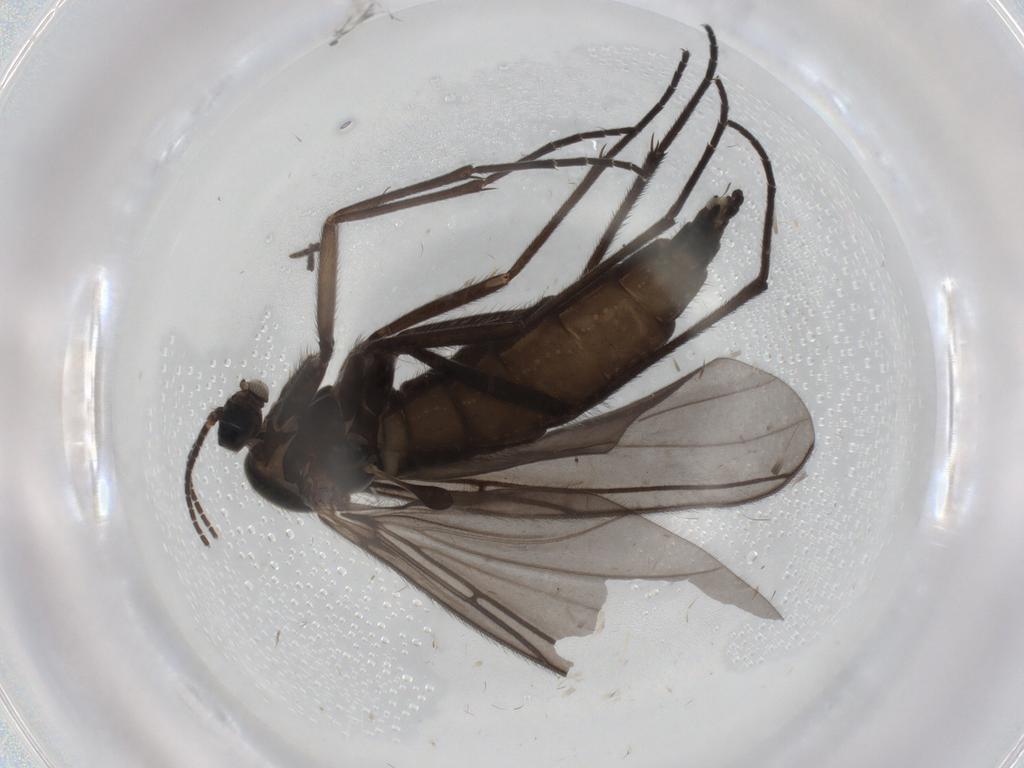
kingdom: Animalia
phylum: Arthropoda
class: Insecta
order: Diptera
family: Sciaridae
